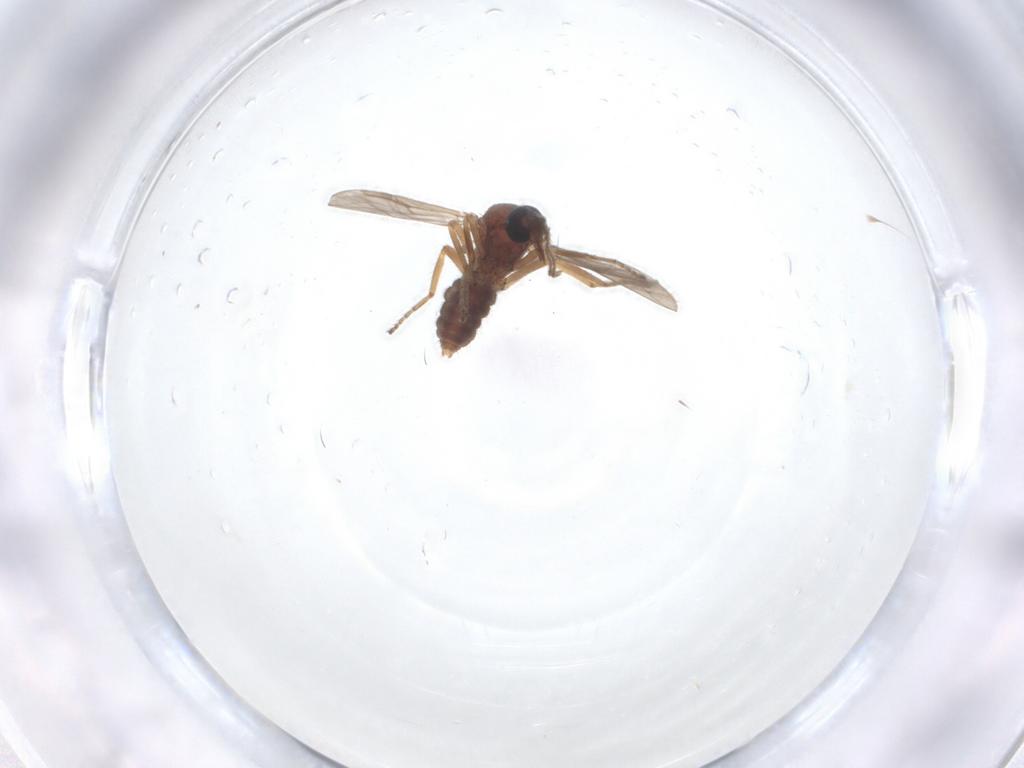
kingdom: Animalia
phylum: Arthropoda
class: Insecta
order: Diptera
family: Ceratopogonidae
